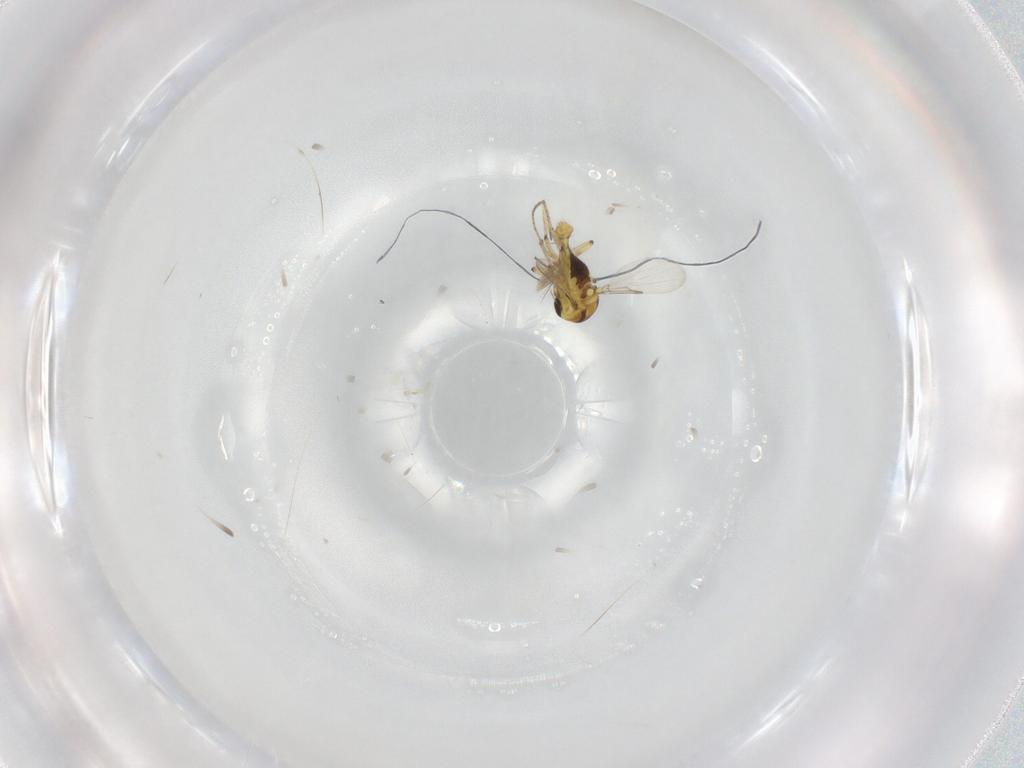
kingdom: Animalia
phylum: Arthropoda
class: Insecta
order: Diptera
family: Ceratopogonidae
